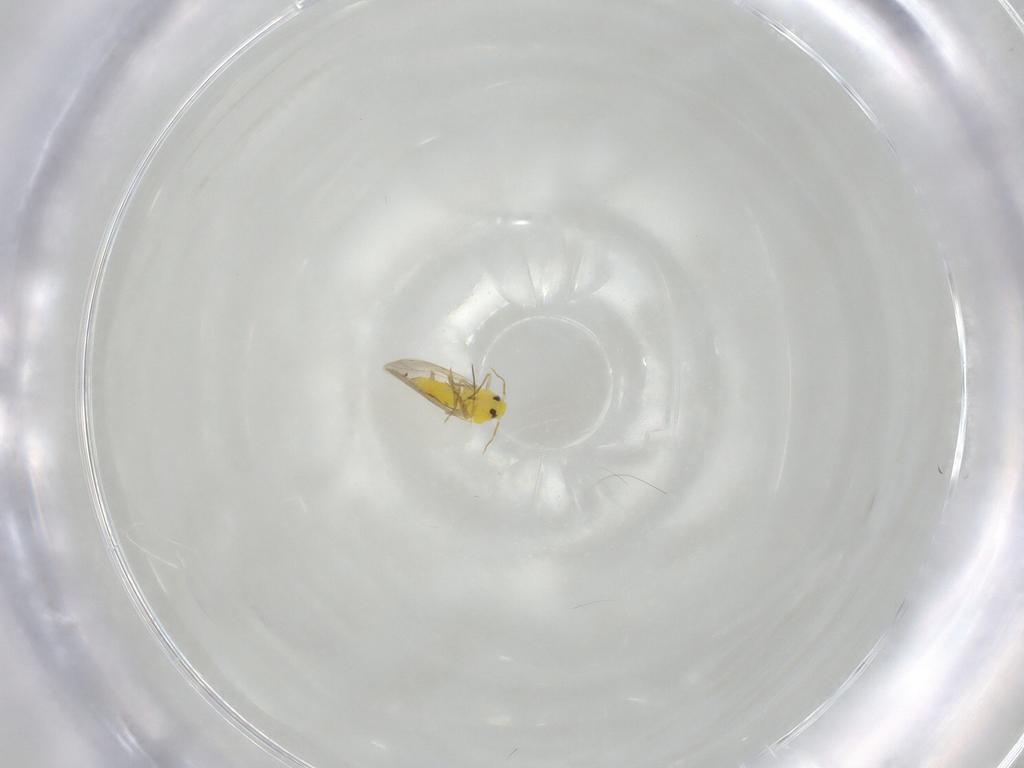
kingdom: Animalia
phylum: Arthropoda
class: Insecta
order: Hemiptera
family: Aleyrodidae
